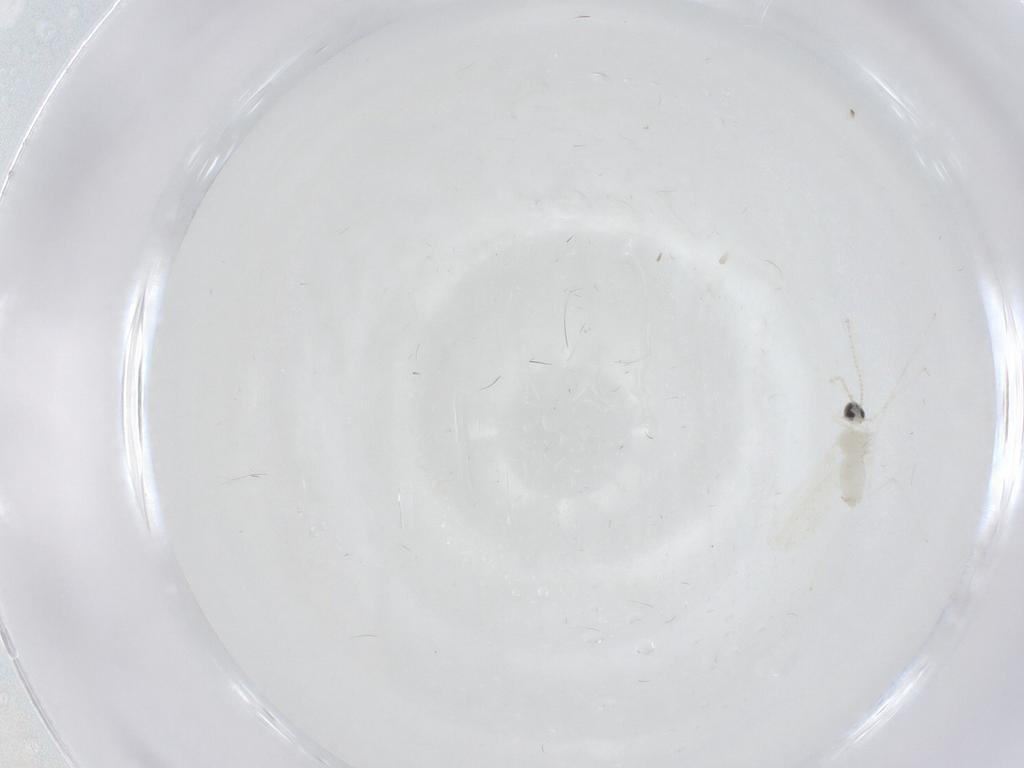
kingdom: Animalia
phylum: Arthropoda
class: Insecta
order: Diptera
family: Cecidomyiidae
